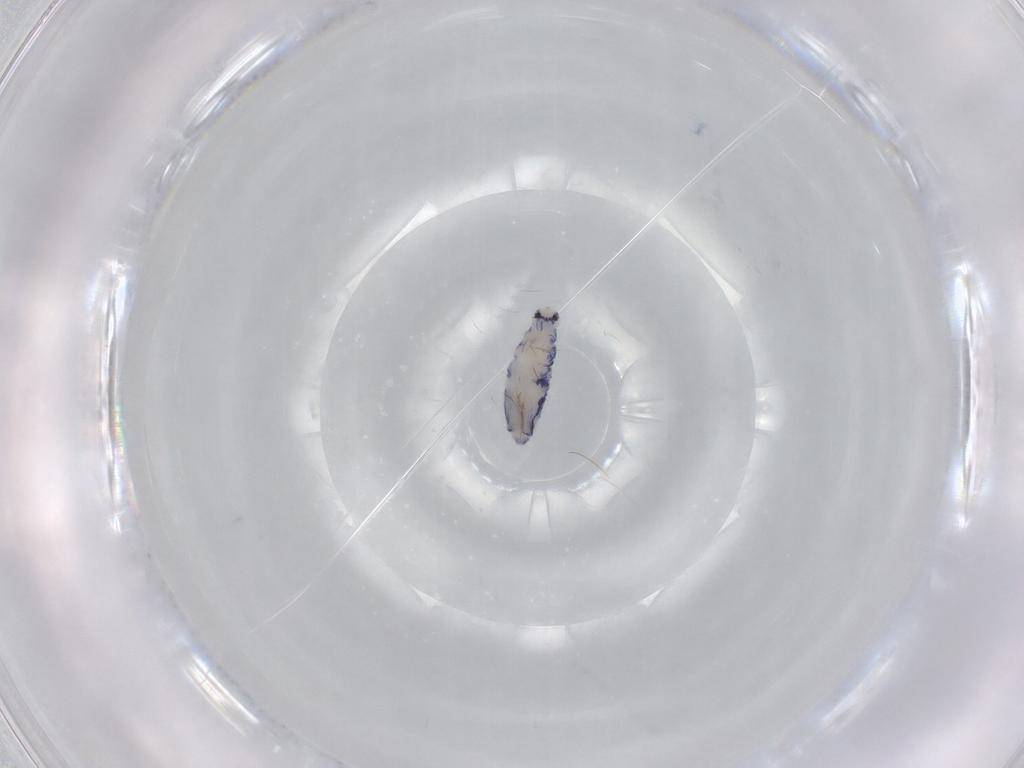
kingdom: Animalia
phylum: Arthropoda
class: Collembola
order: Entomobryomorpha
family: Entomobryidae
